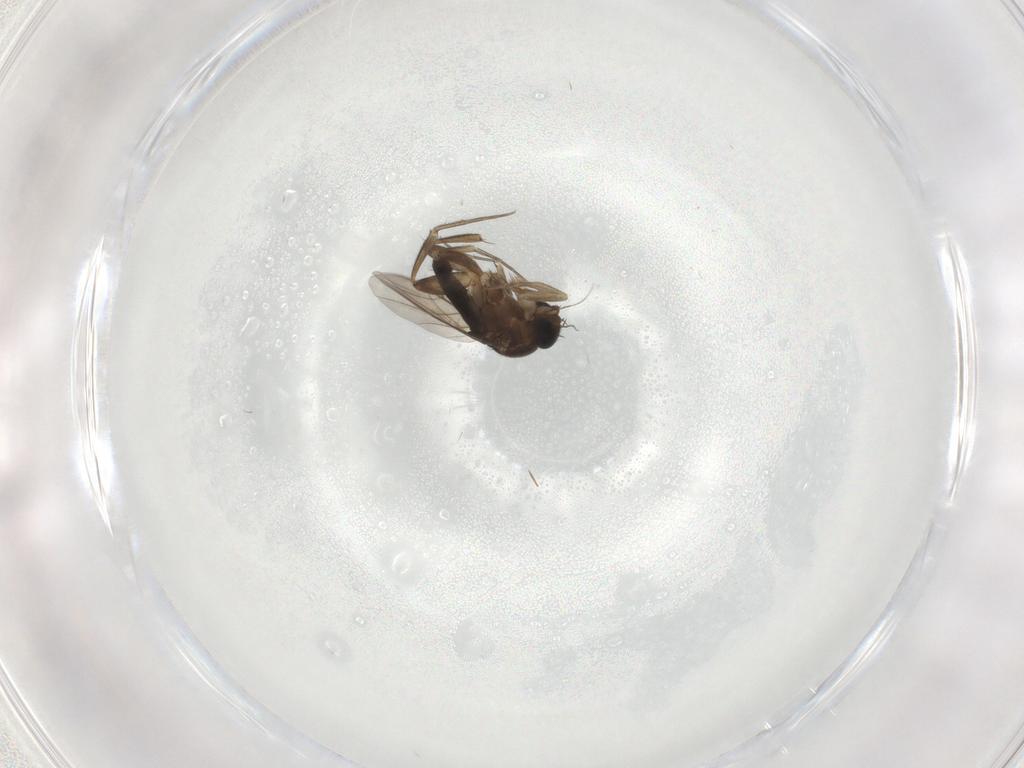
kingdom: Animalia
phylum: Arthropoda
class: Insecta
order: Diptera
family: Phoridae
